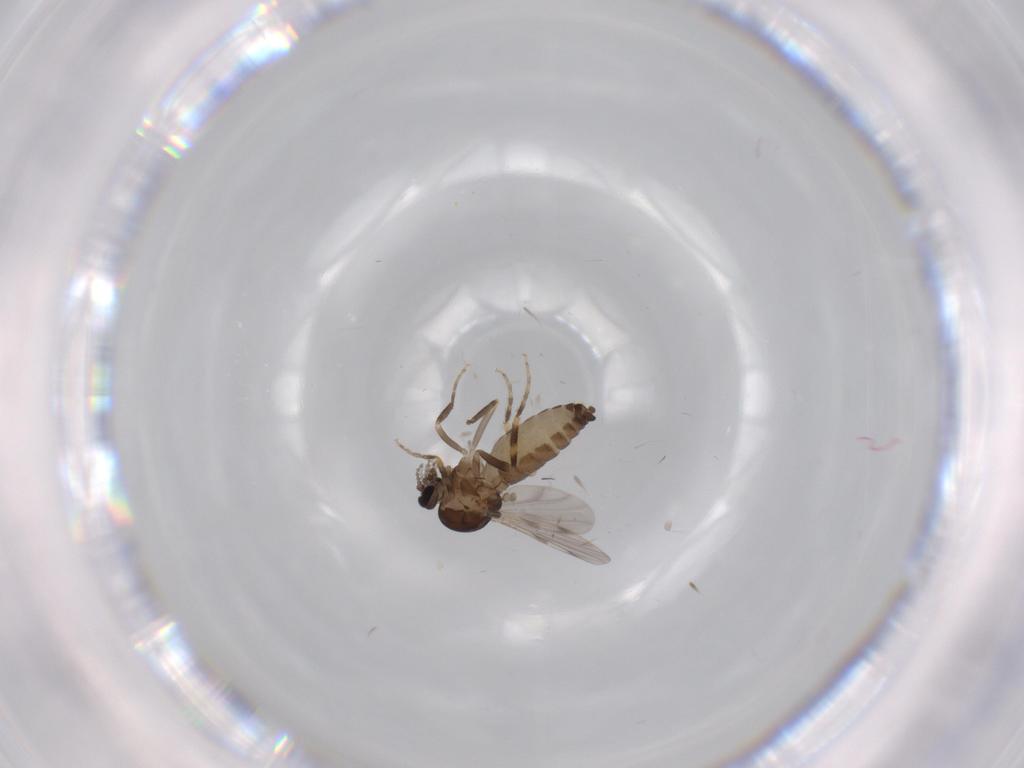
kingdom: Animalia
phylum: Arthropoda
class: Insecta
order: Diptera
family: Ceratopogonidae
